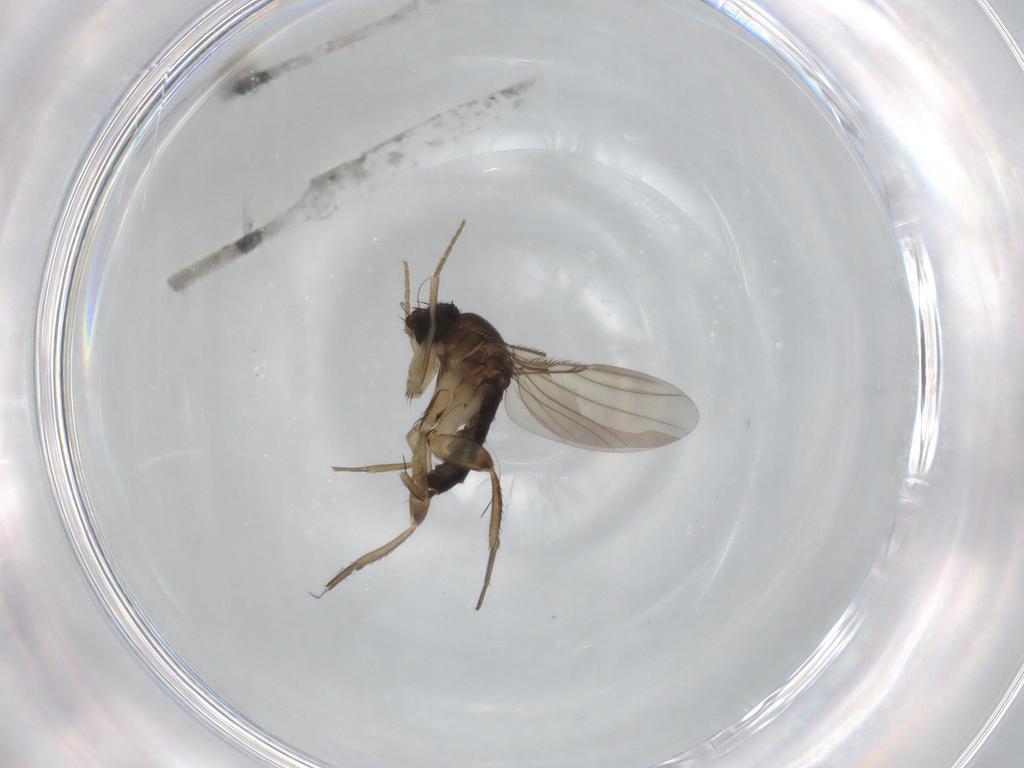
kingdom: Animalia
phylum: Arthropoda
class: Insecta
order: Diptera
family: Phoridae
